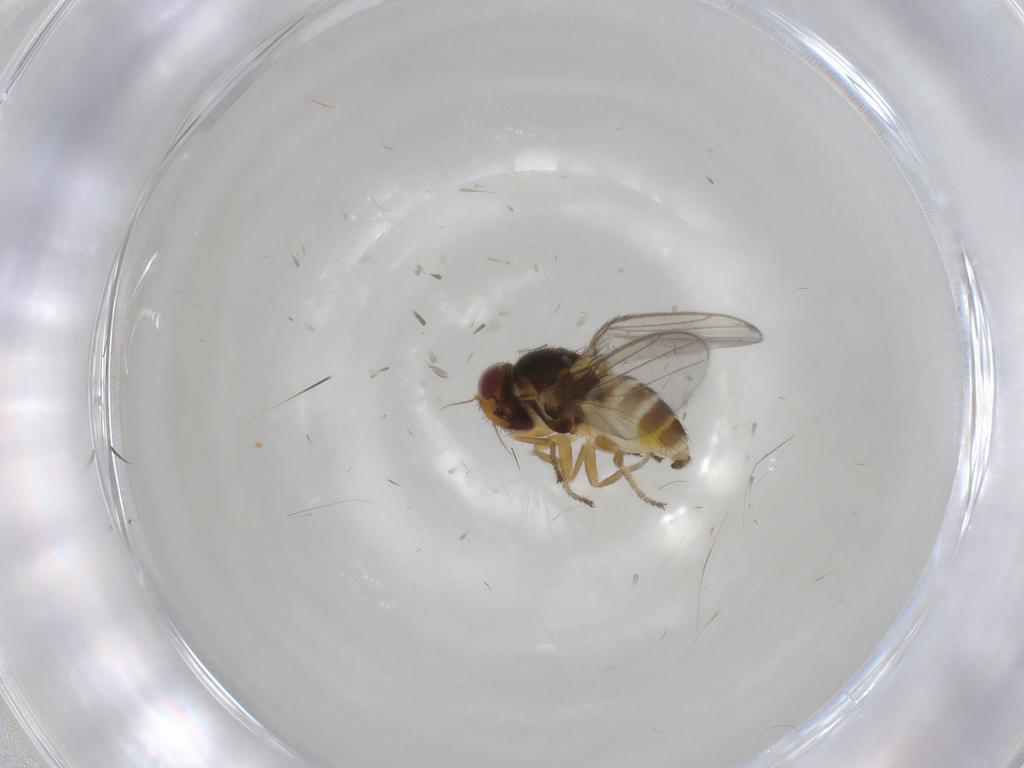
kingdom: Animalia
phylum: Arthropoda
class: Insecta
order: Diptera
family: Chloropidae
